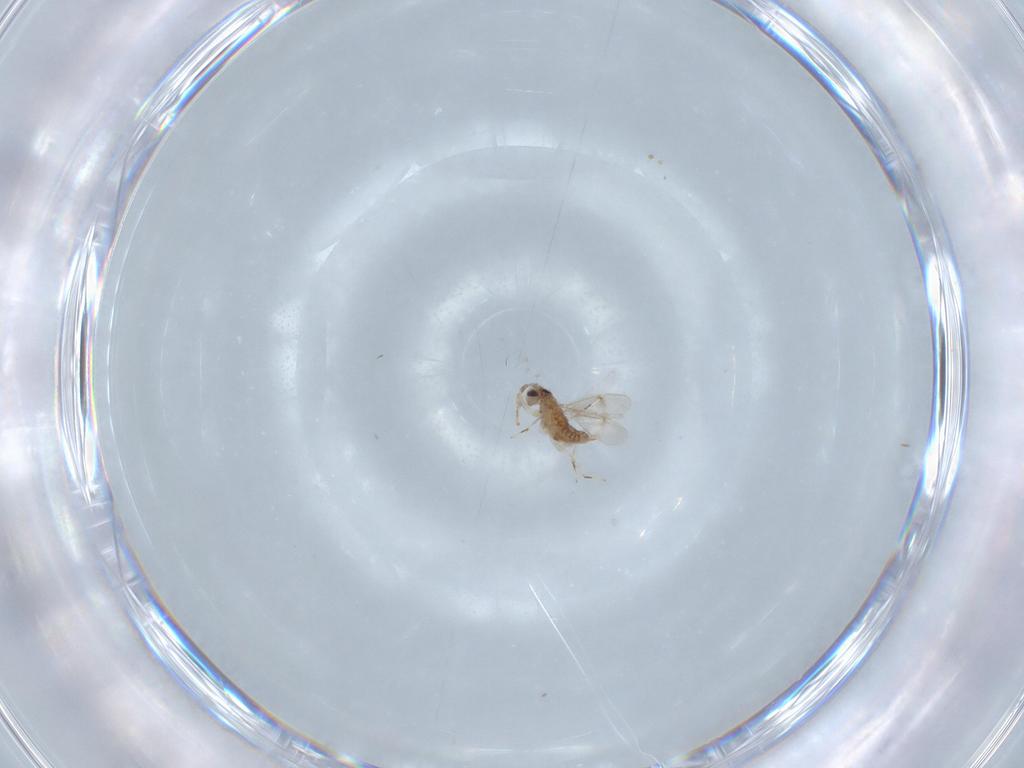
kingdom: Animalia
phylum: Arthropoda
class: Insecta
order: Hymenoptera
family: Aphelinidae
